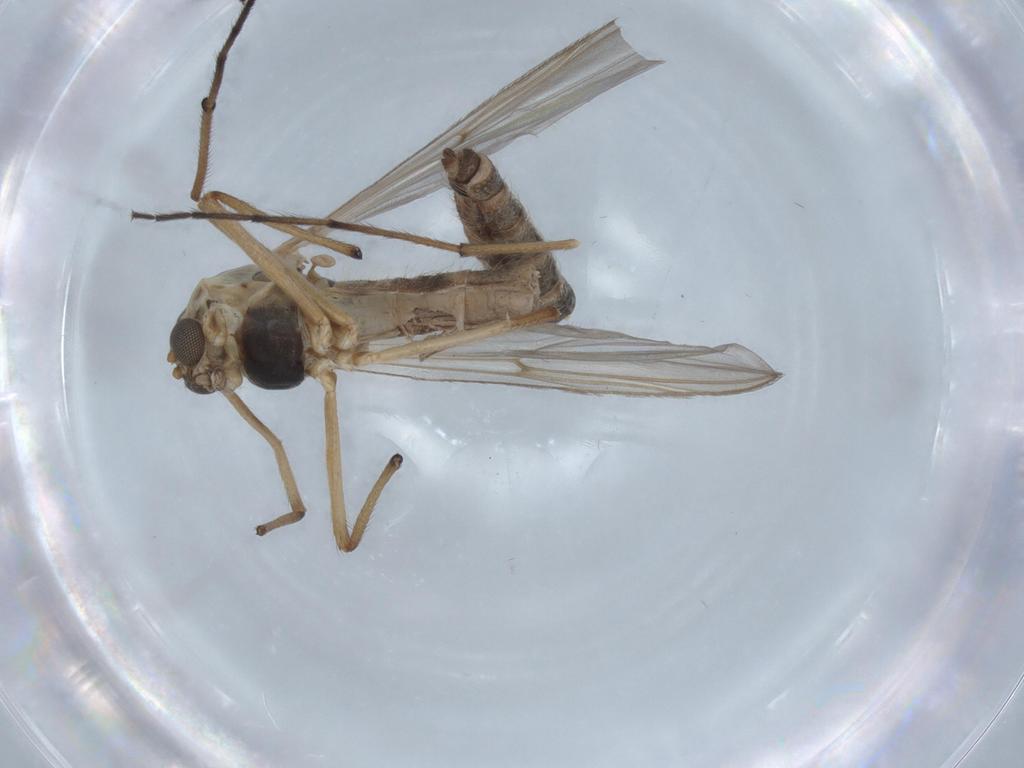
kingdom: Animalia
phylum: Arthropoda
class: Insecta
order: Diptera
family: Chironomidae
